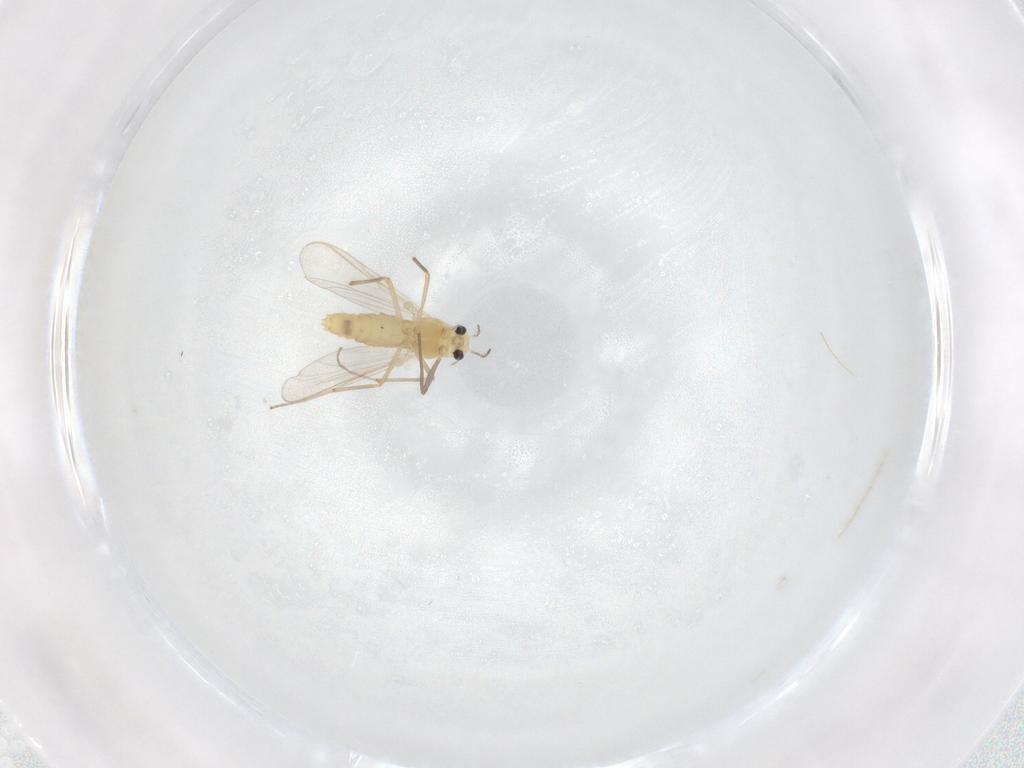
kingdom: Animalia
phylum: Arthropoda
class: Insecta
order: Diptera
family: Chironomidae
